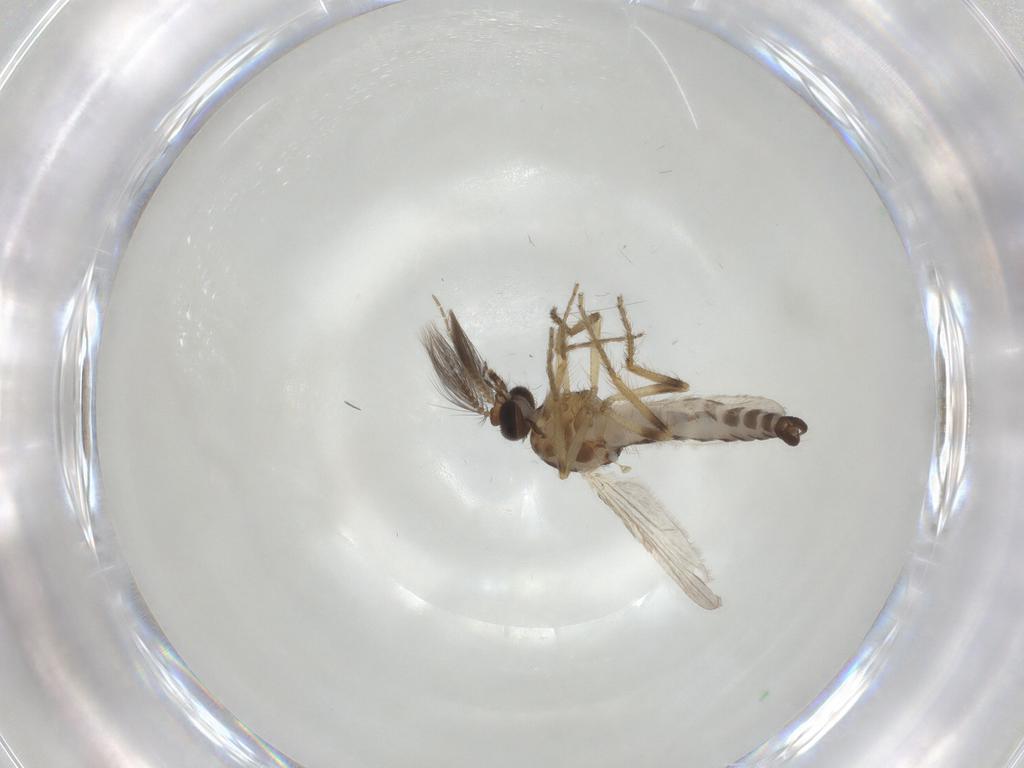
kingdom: Animalia
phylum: Arthropoda
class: Insecta
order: Diptera
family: Ceratopogonidae
